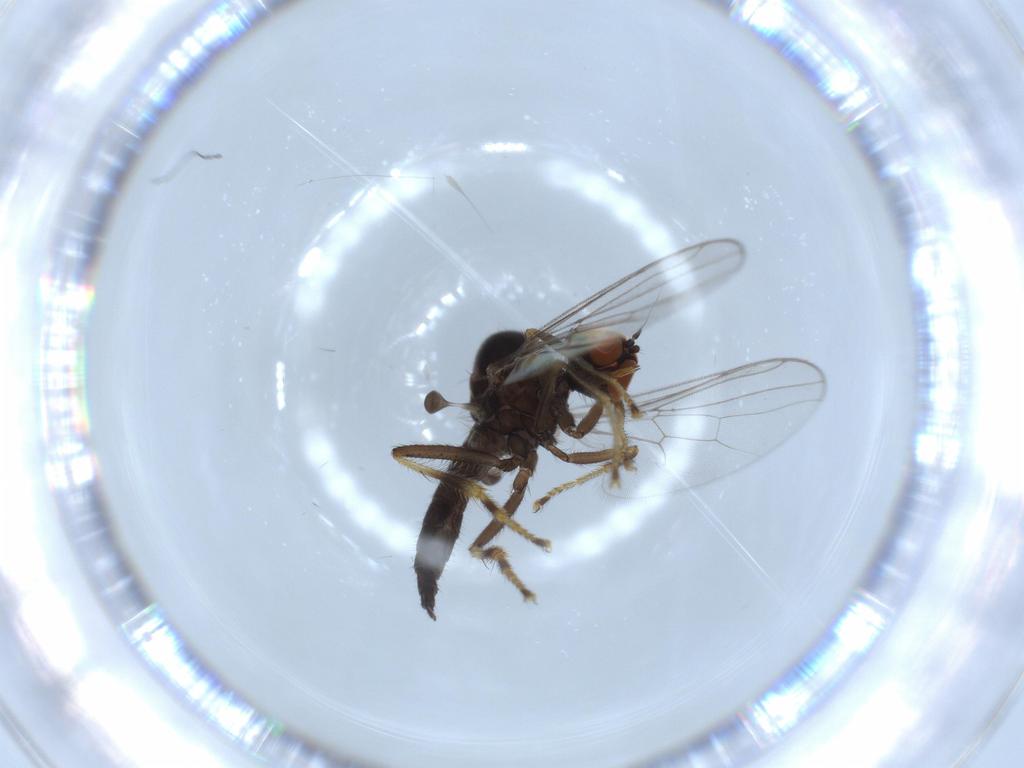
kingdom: Animalia
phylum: Arthropoda
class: Insecta
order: Diptera
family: Hybotidae
